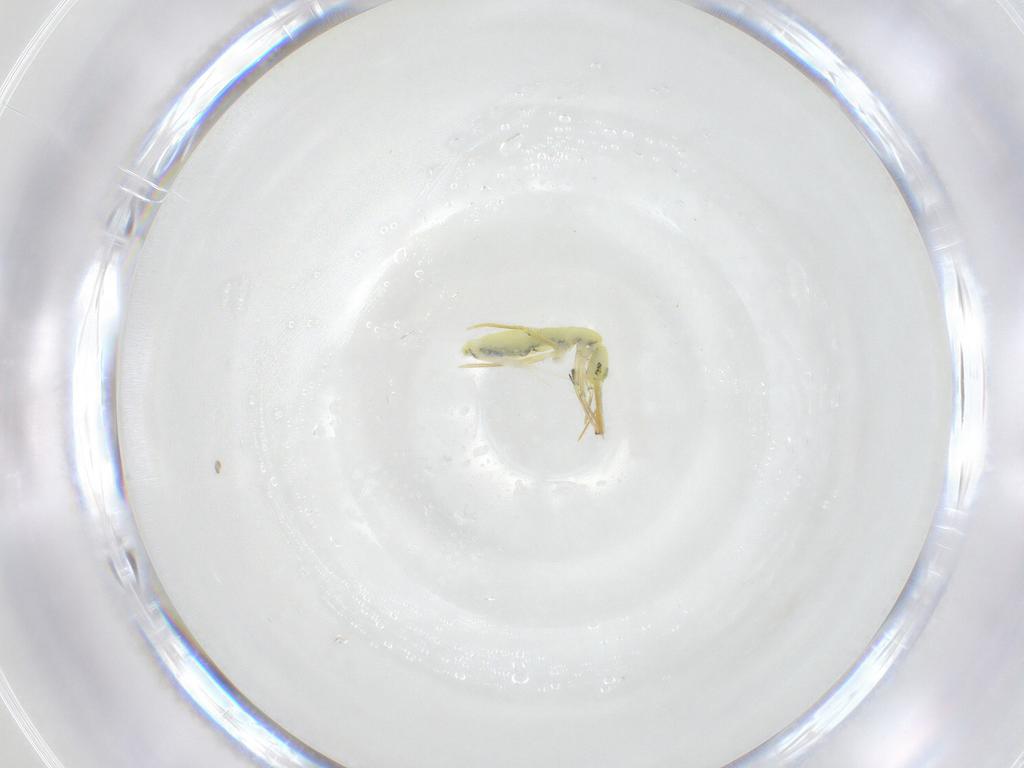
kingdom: Animalia
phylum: Arthropoda
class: Collembola
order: Entomobryomorpha
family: Entomobryidae
